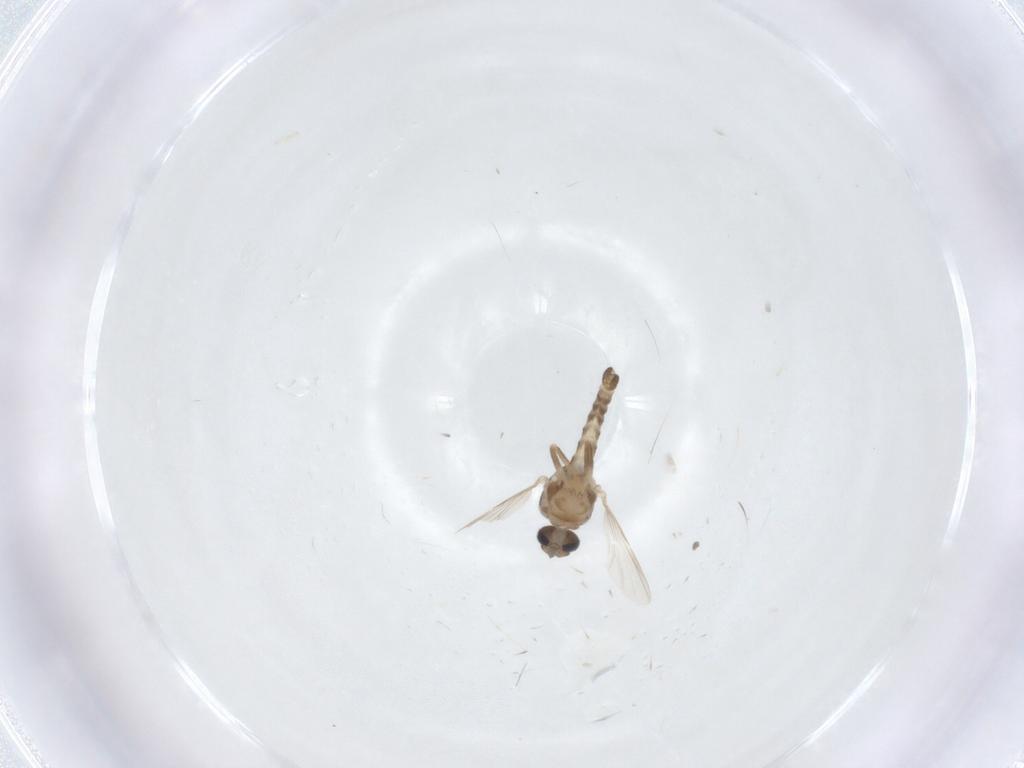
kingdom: Animalia
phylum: Arthropoda
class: Insecta
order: Diptera
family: Ceratopogonidae
